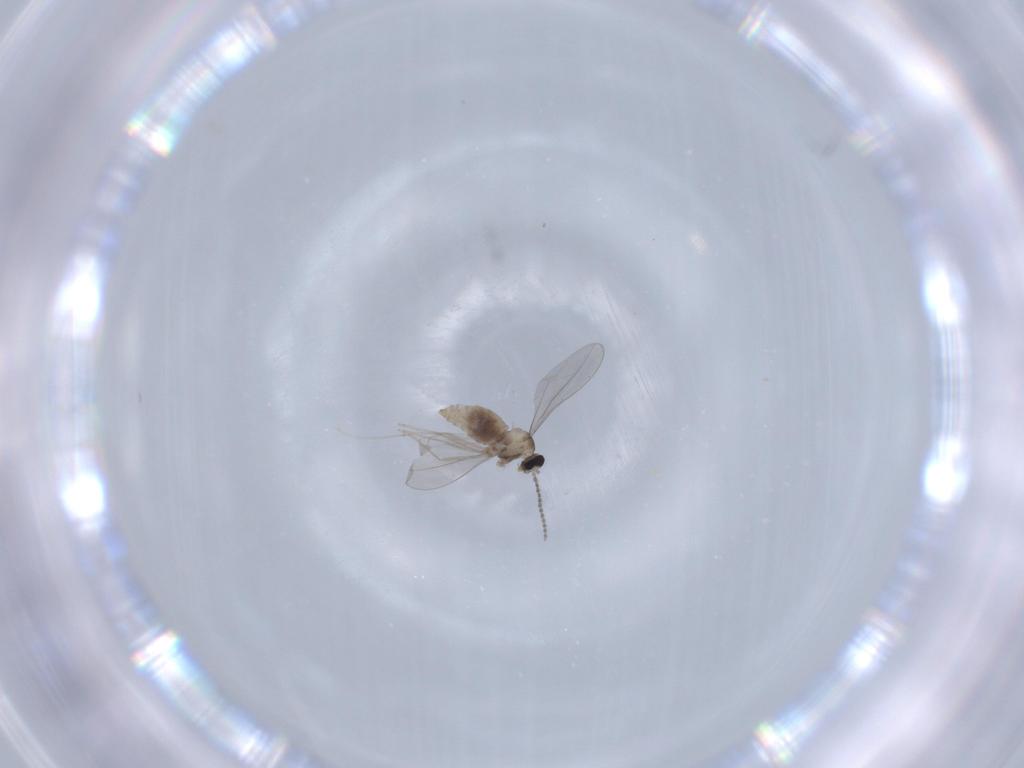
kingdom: Animalia
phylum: Arthropoda
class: Insecta
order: Diptera
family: Cecidomyiidae
